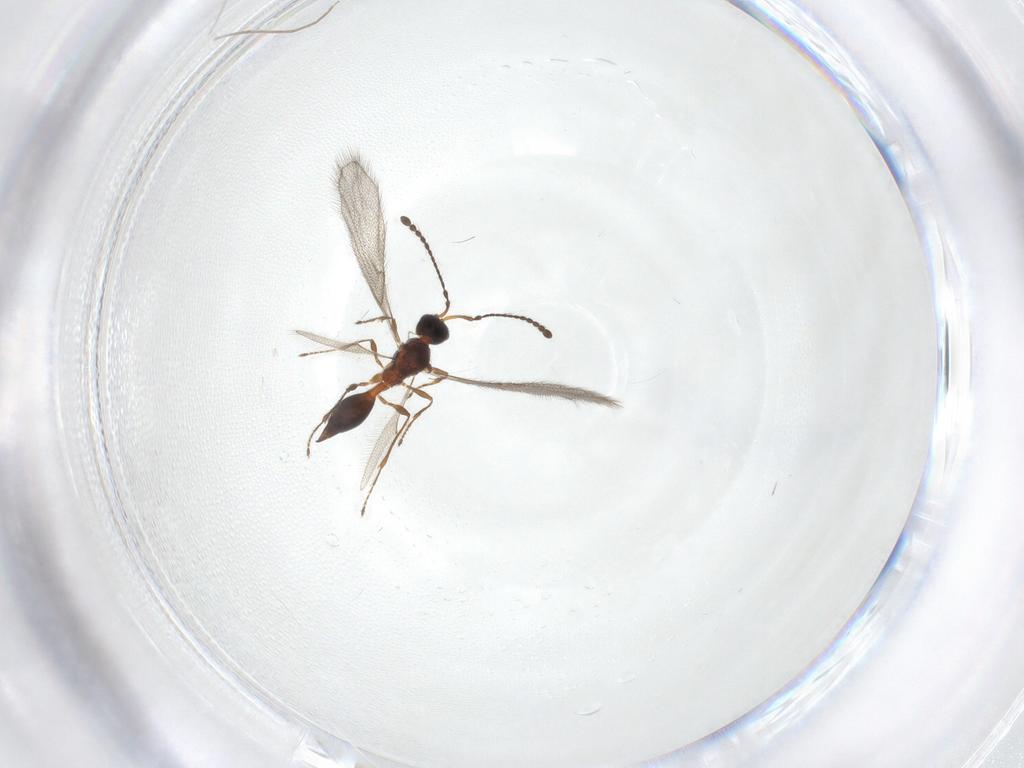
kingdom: Animalia
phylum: Arthropoda
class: Insecta
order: Hymenoptera
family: Diapriidae
